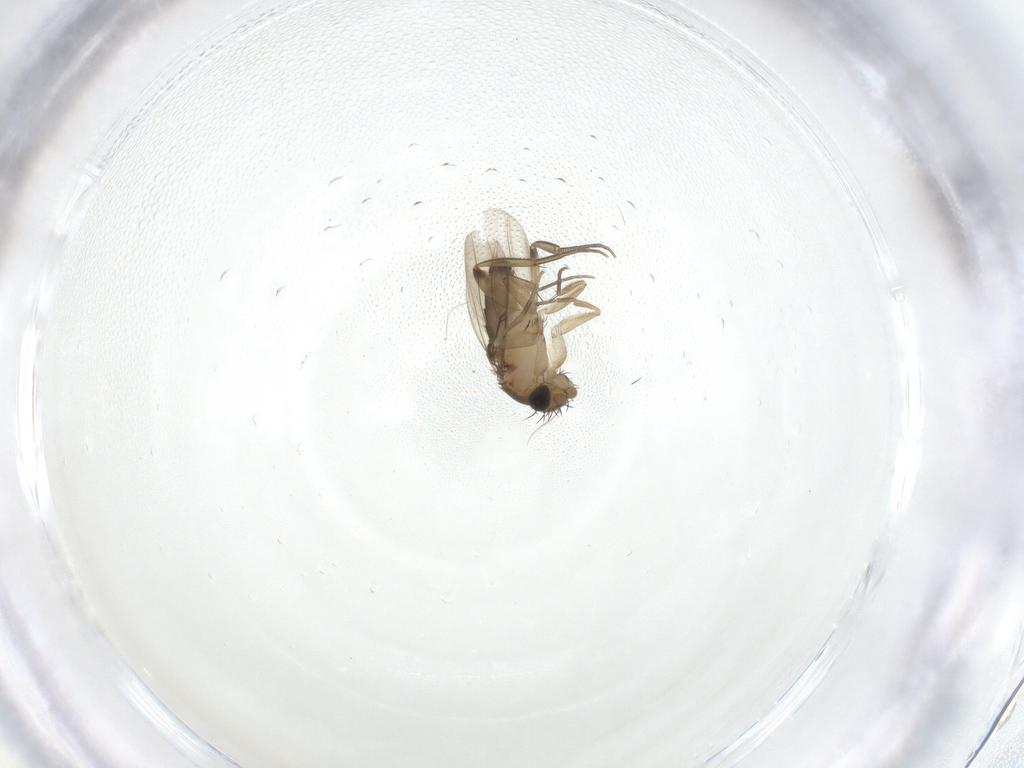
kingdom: Animalia
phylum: Arthropoda
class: Insecta
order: Diptera
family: Phoridae
